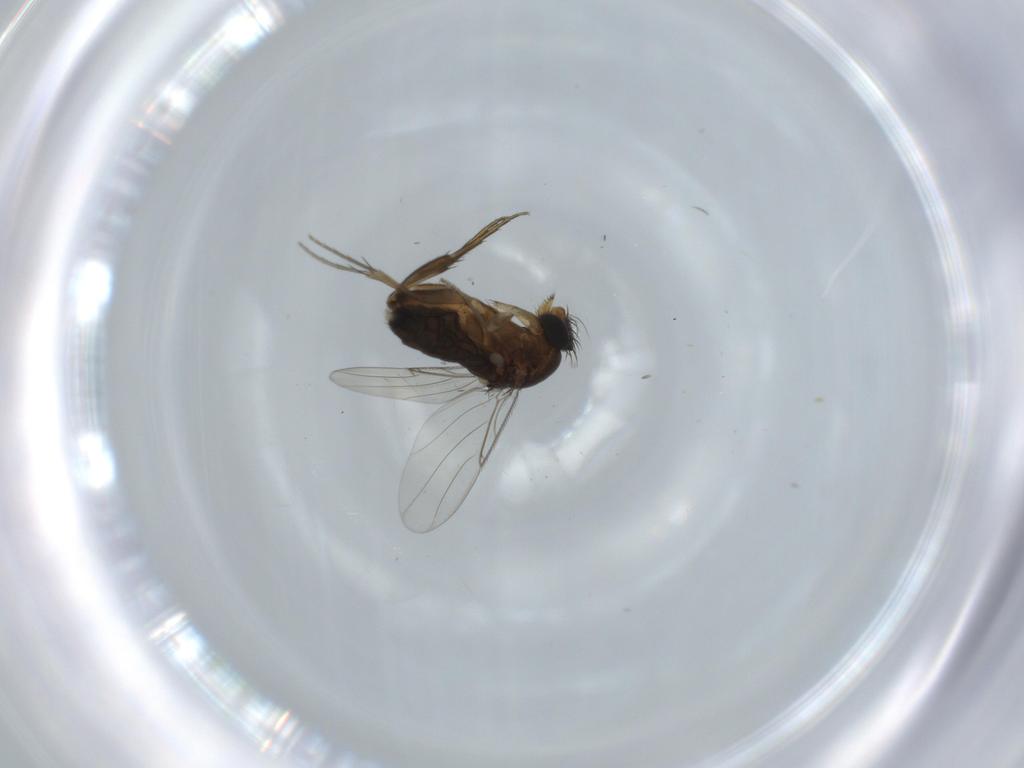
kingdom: Animalia
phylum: Arthropoda
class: Insecta
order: Diptera
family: Phoridae
